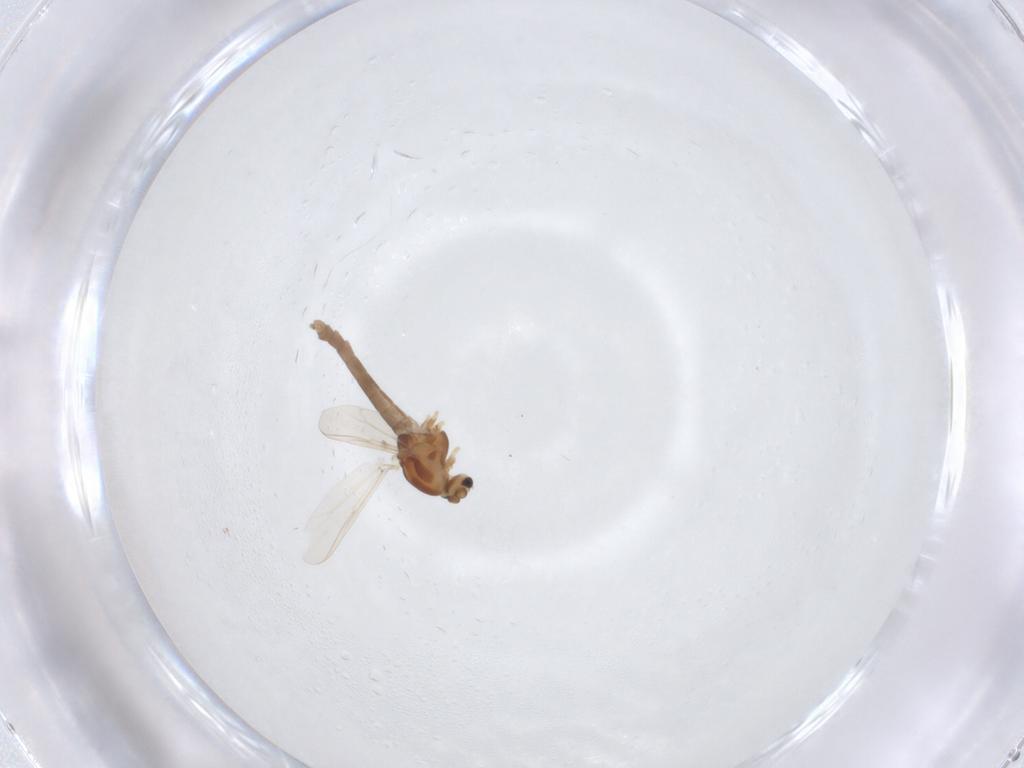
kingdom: Animalia
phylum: Arthropoda
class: Insecta
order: Diptera
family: Chironomidae
